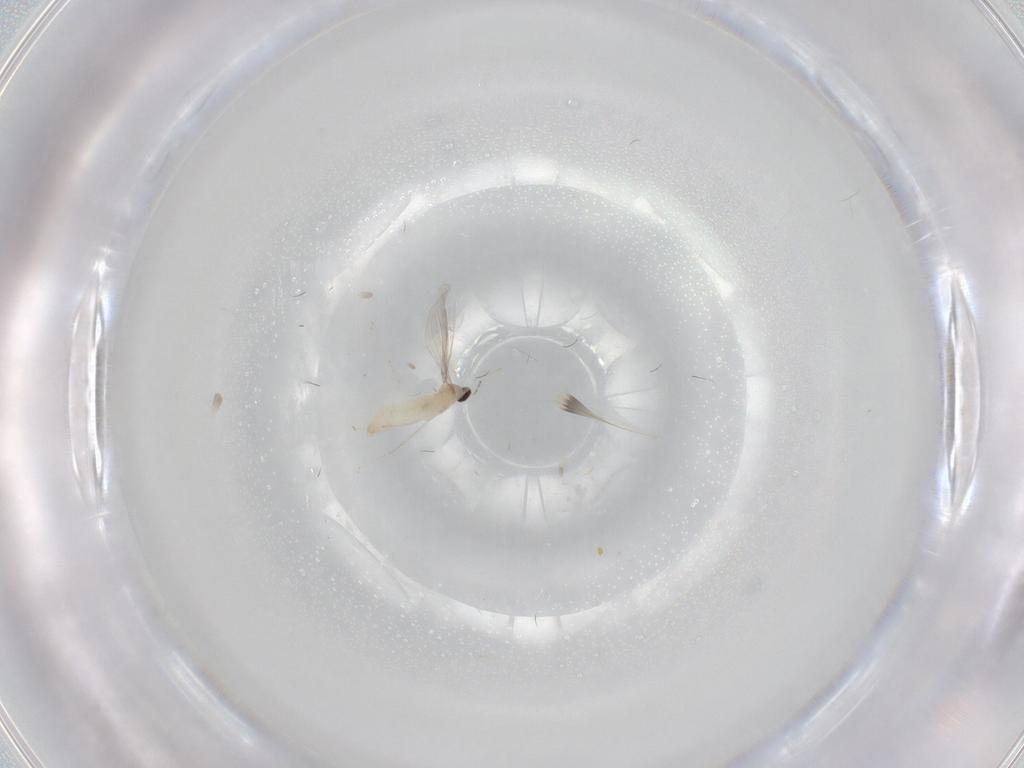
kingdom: Animalia
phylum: Arthropoda
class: Insecta
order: Diptera
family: Cecidomyiidae
